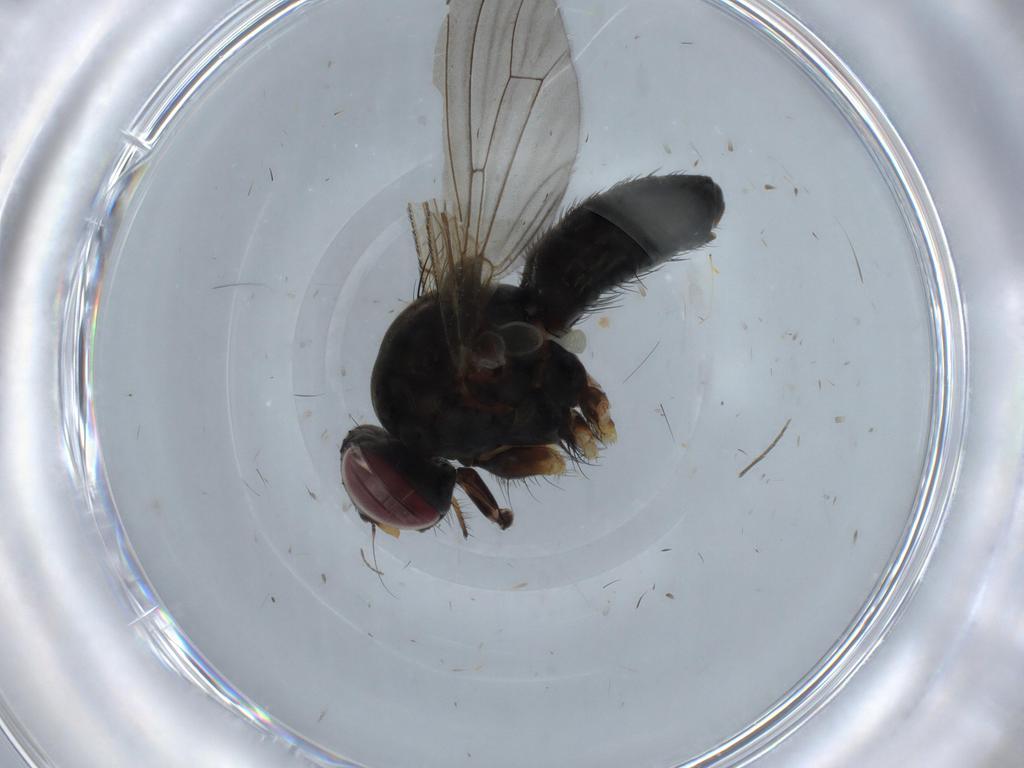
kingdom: Animalia
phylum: Arthropoda
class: Insecta
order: Diptera
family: Muscidae
